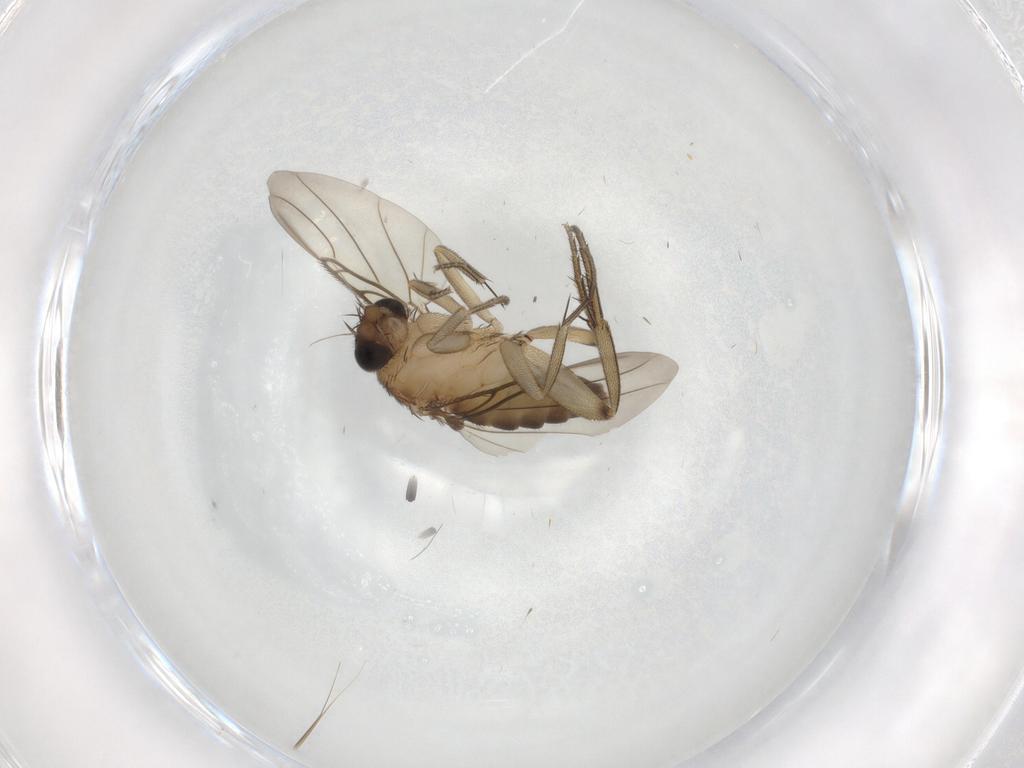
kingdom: Animalia
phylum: Arthropoda
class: Insecta
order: Diptera
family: Phoridae
